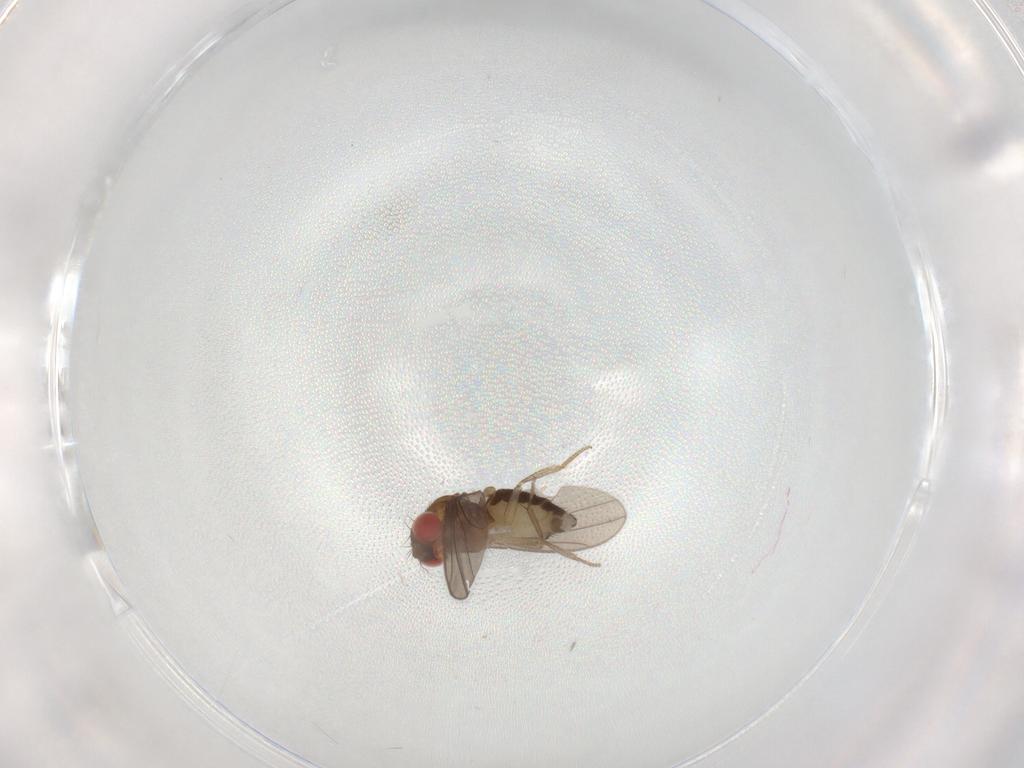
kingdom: Animalia
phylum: Arthropoda
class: Insecta
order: Diptera
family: Drosophilidae
